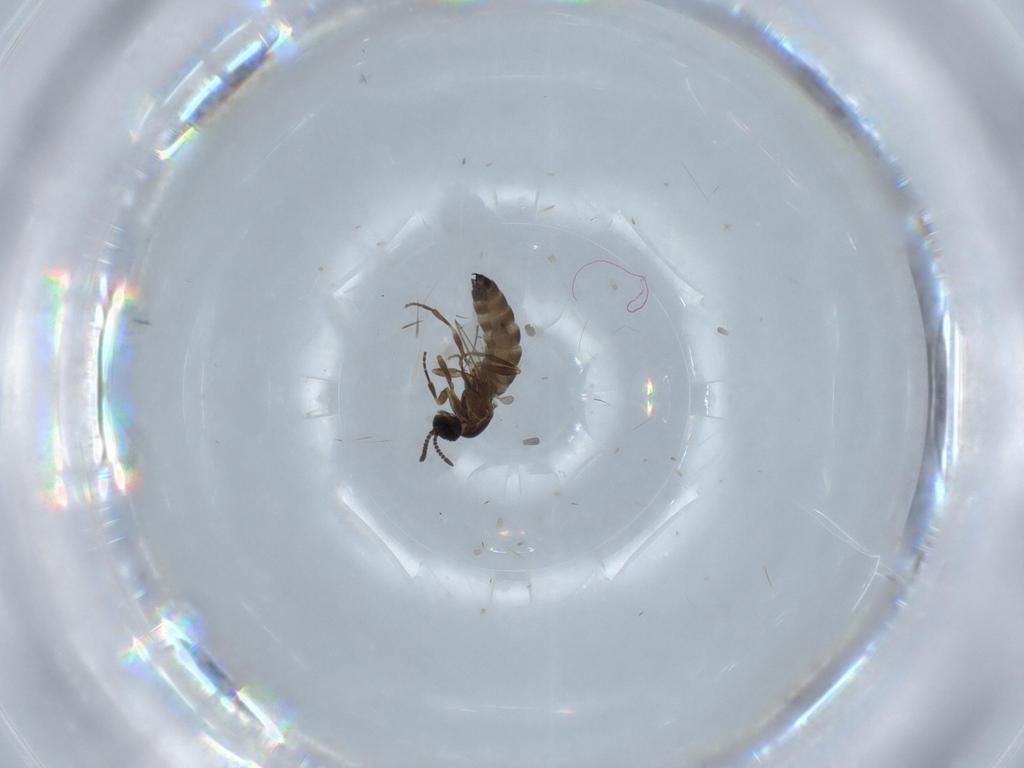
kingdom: Animalia
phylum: Arthropoda
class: Insecta
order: Diptera
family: Scatopsidae
